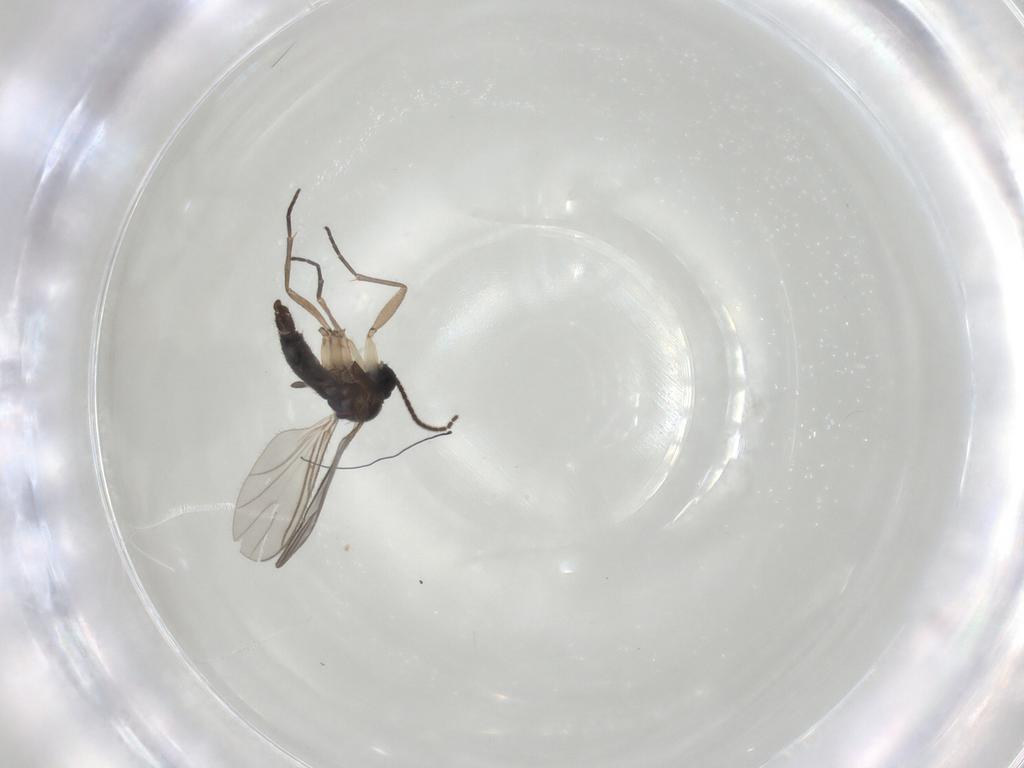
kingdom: Animalia
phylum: Arthropoda
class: Insecta
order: Diptera
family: Sciaridae
